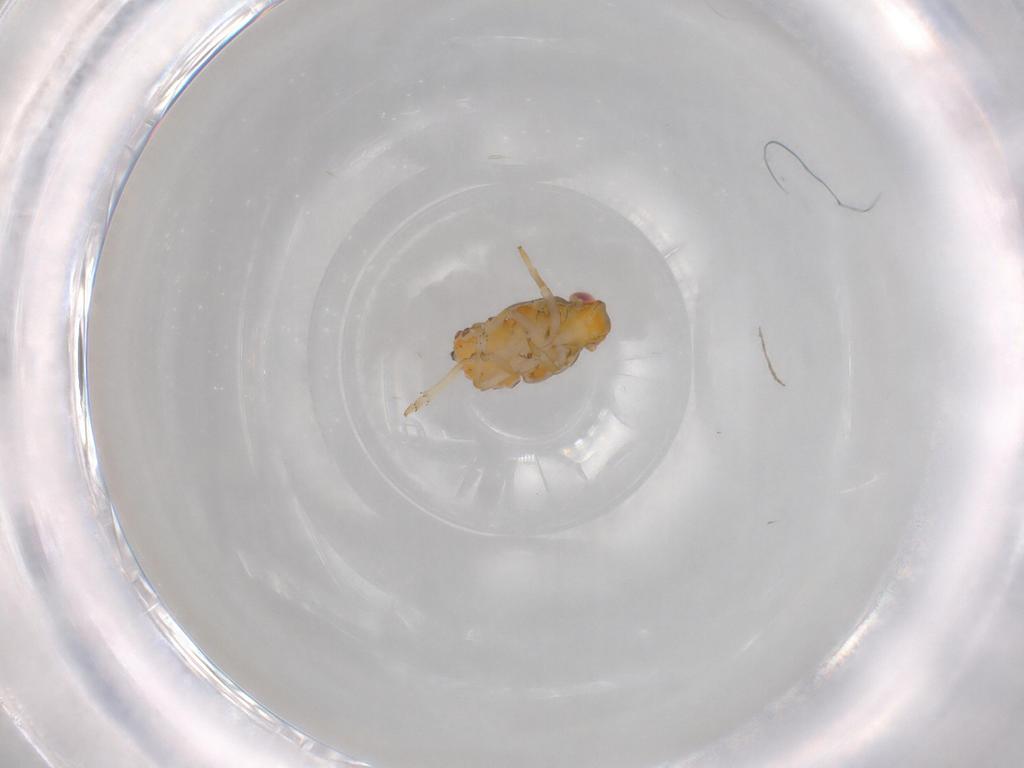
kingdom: Animalia
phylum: Arthropoda
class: Insecta
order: Hemiptera
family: Issidae
